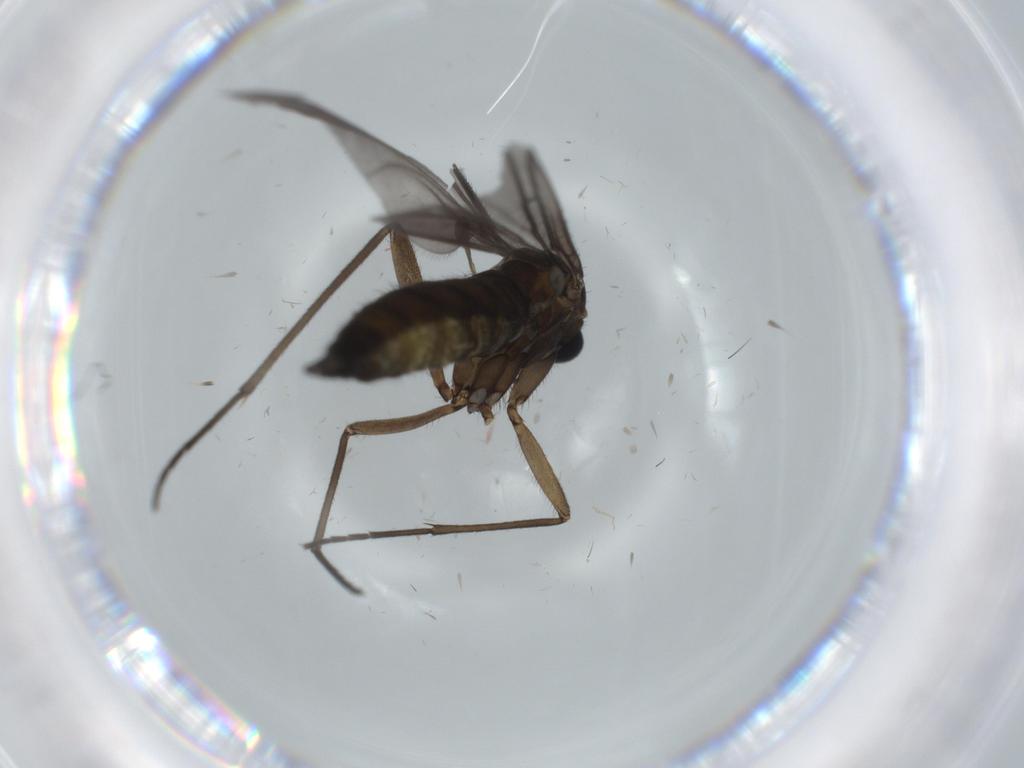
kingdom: Animalia
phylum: Arthropoda
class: Insecta
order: Diptera
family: Sciaridae
